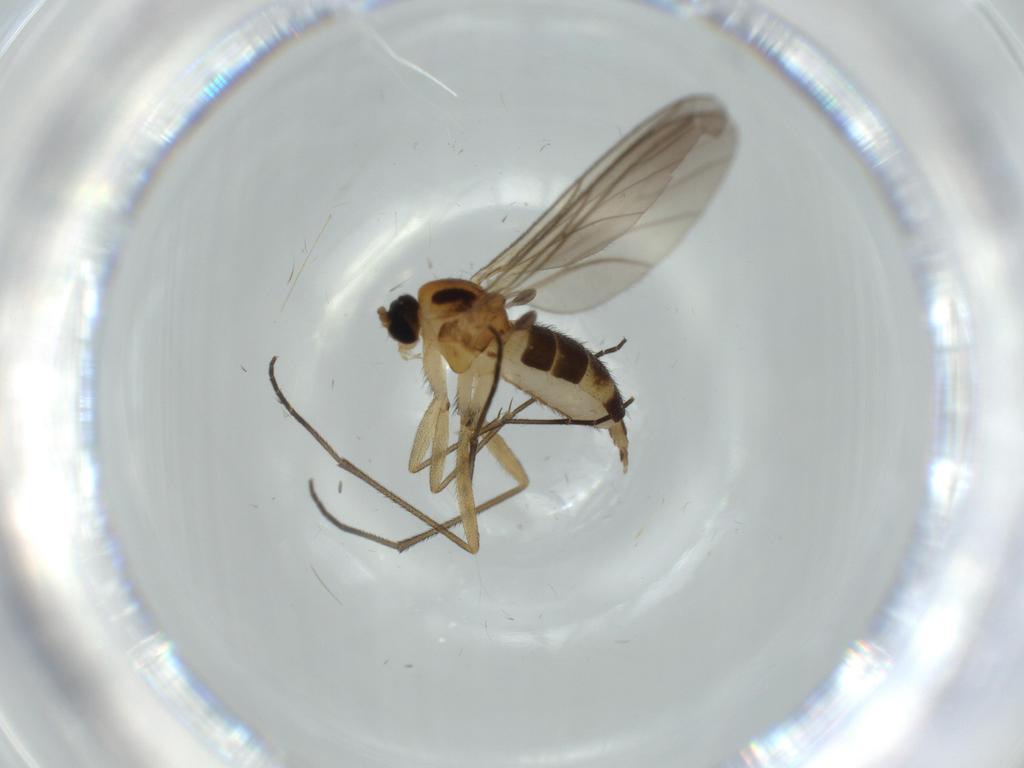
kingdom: Animalia
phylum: Arthropoda
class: Insecta
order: Diptera
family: Sciaridae
